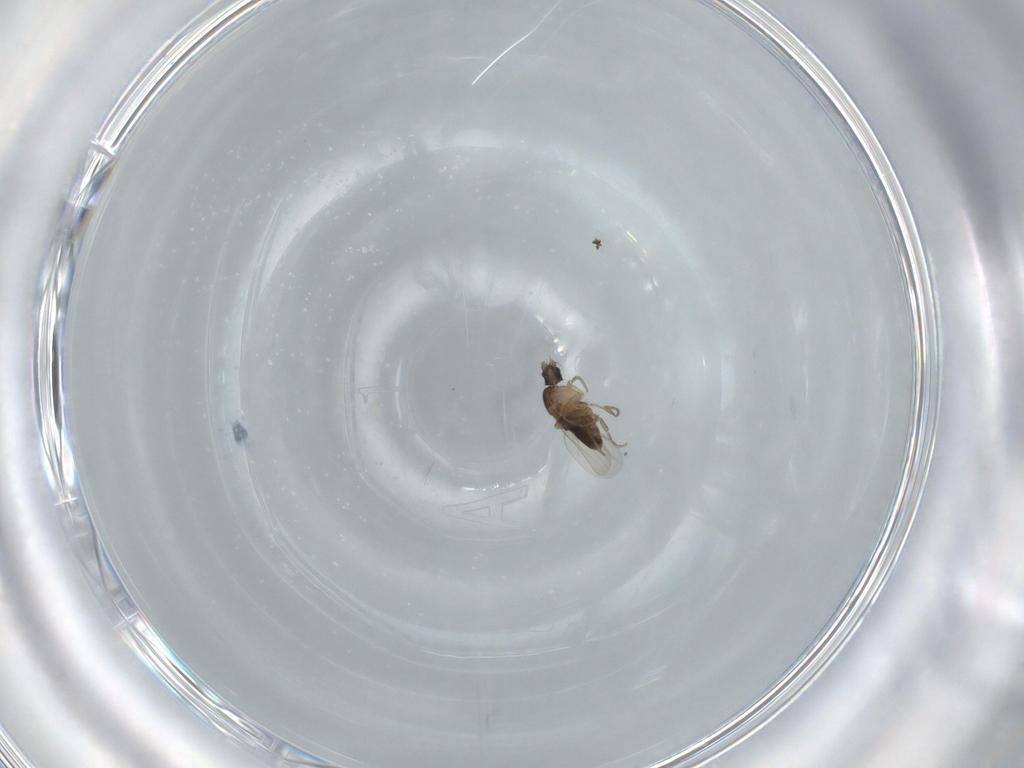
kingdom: Animalia
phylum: Arthropoda
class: Insecta
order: Diptera
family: Phoridae
